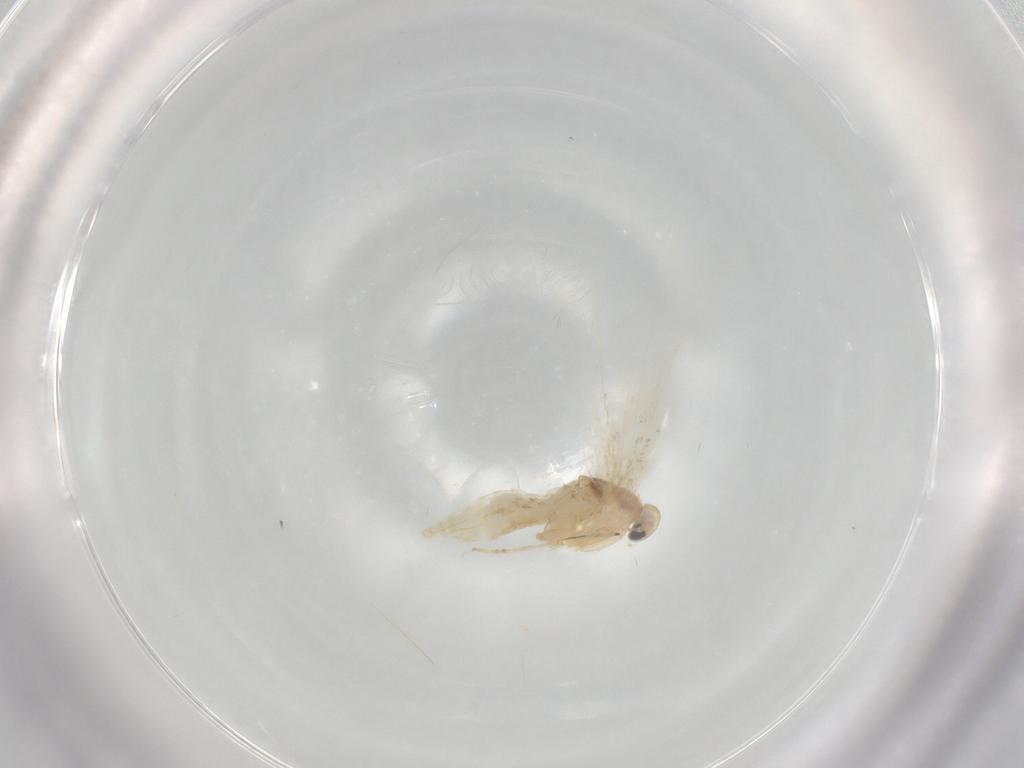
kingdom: Animalia
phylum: Arthropoda
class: Insecta
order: Lepidoptera
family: Gracillariidae
